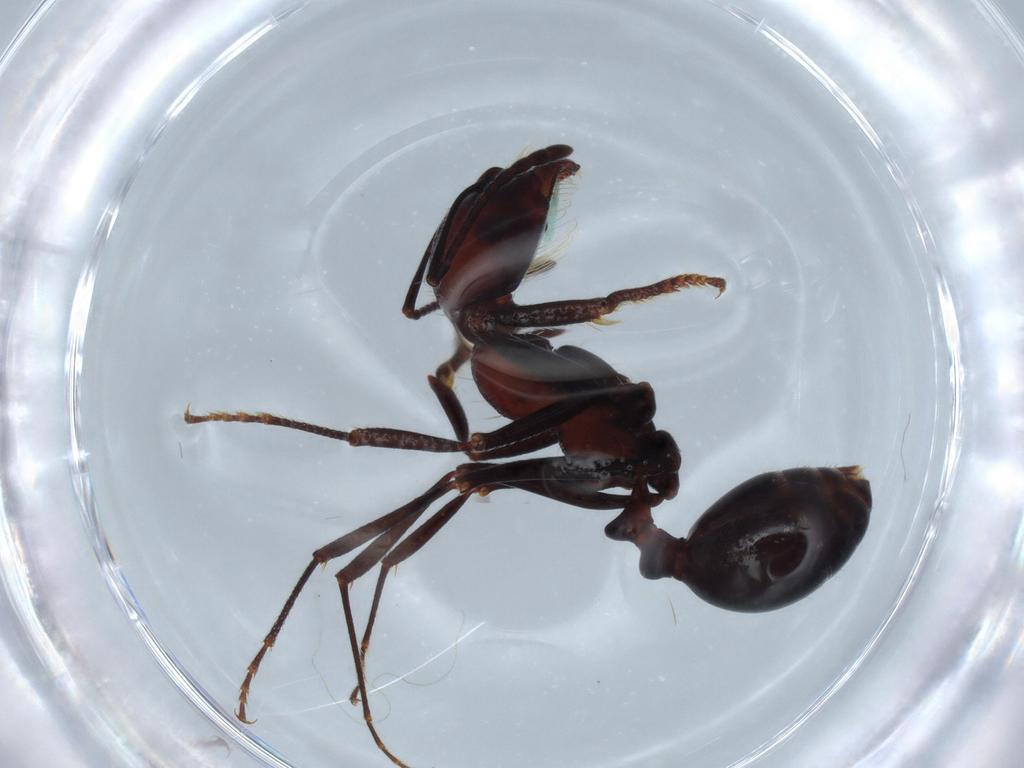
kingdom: Animalia
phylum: Arthropoda
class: Insecta
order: Hymenoptera
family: Formicidae
